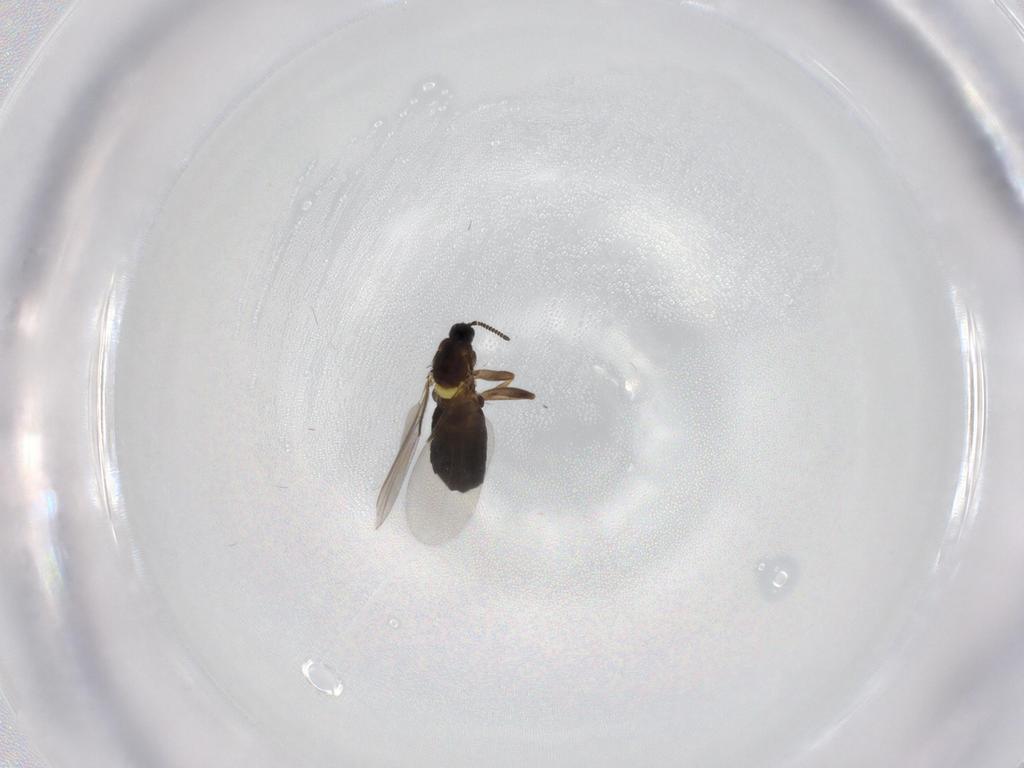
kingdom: Animalia
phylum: Arthropoda
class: Insecta
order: Diptera
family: Scatopsidae
